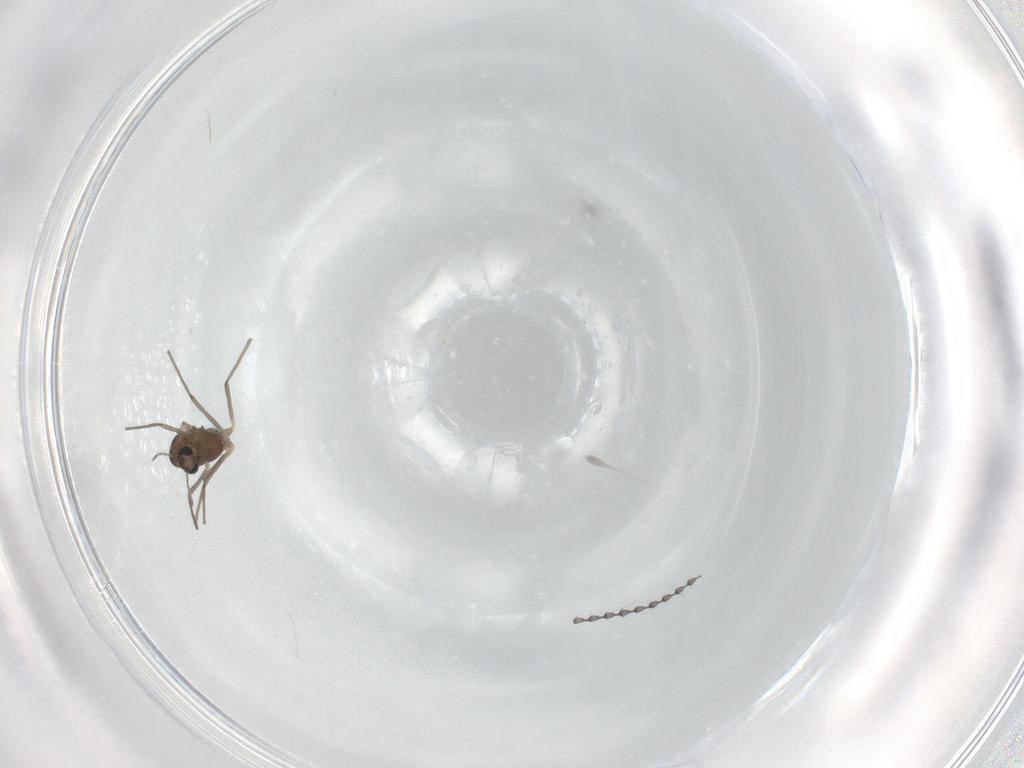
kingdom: Animalia
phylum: Arthropoda
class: Insecta
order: Diptera
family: Chironomidae
